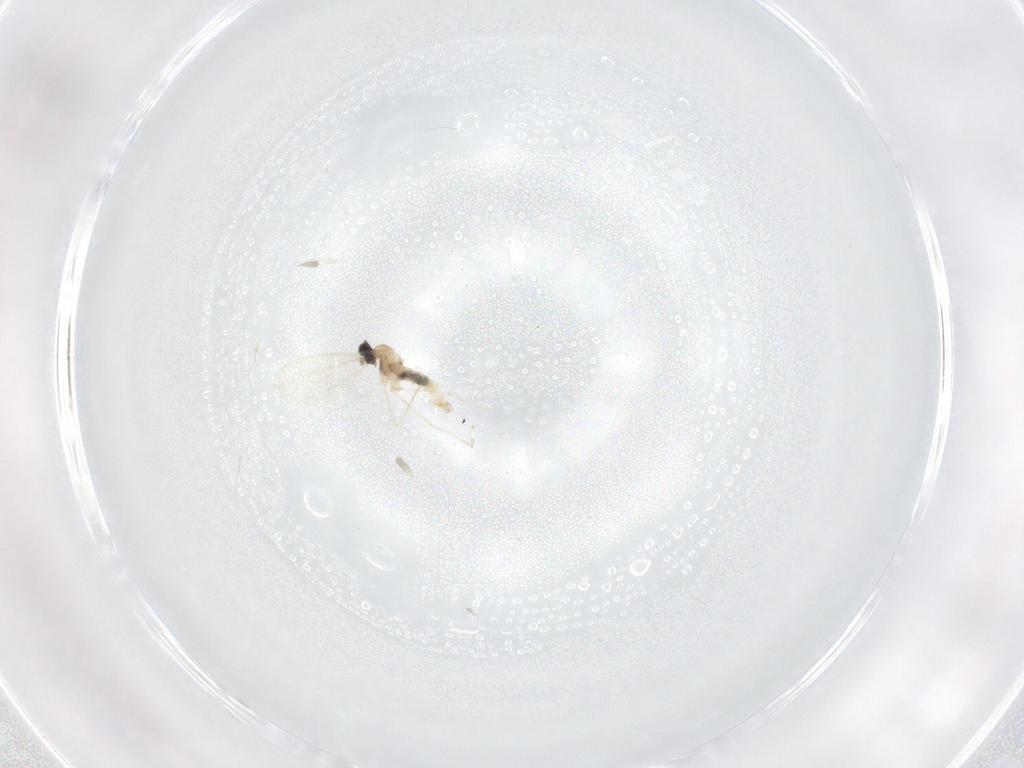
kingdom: Animalia
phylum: Arthropoda
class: Insecta
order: Diptera
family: Cecidomyiidae
